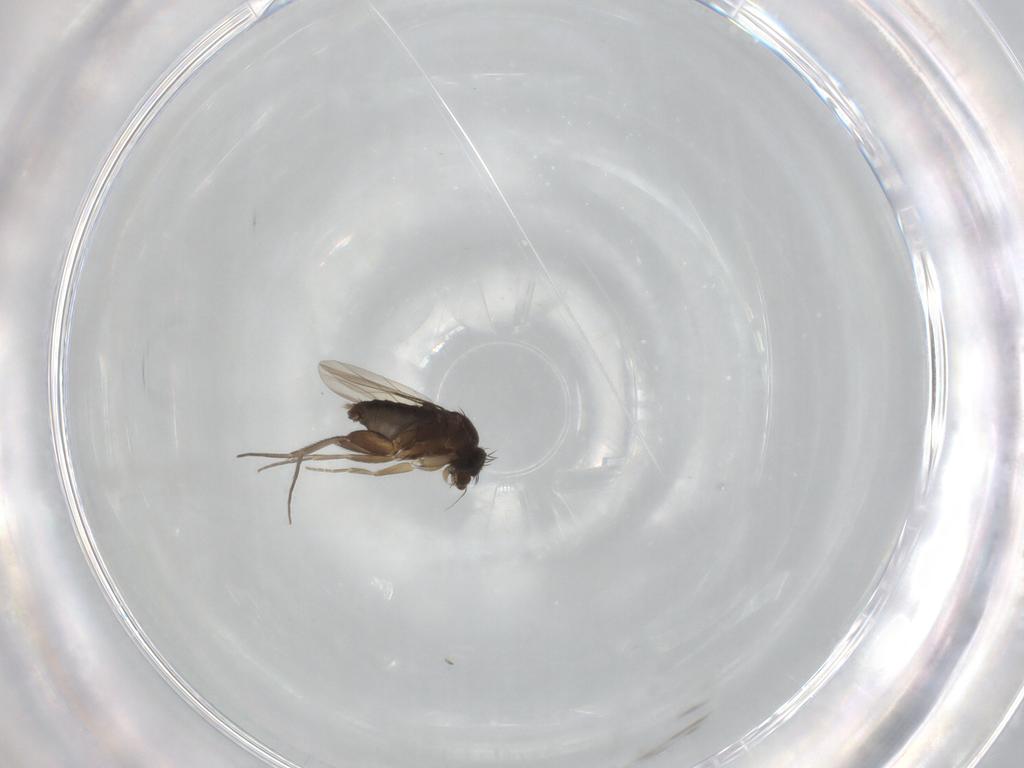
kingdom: Animalia
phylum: Arthropoda
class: Insecta
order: Diptera
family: Phoridae
